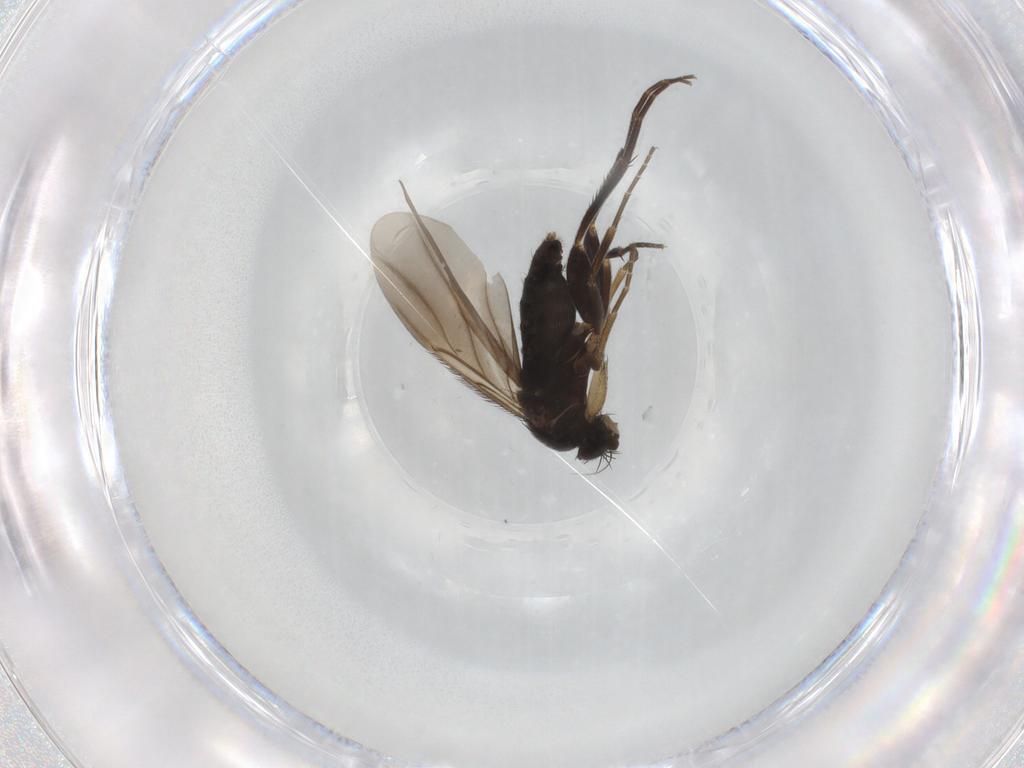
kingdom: Animalia
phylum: Arthropoda
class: Insecta
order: Diptera
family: Phoridae
